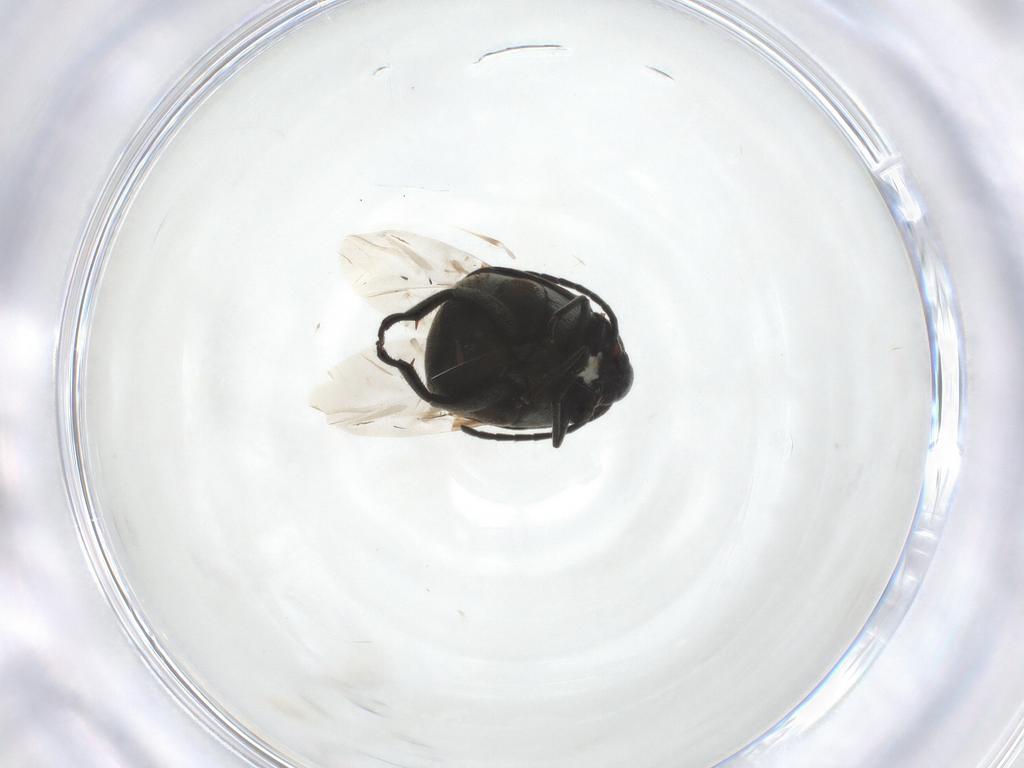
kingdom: Animalia
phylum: Arthropoda
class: Insecta
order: Coleoptera
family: Chrysomelidae
